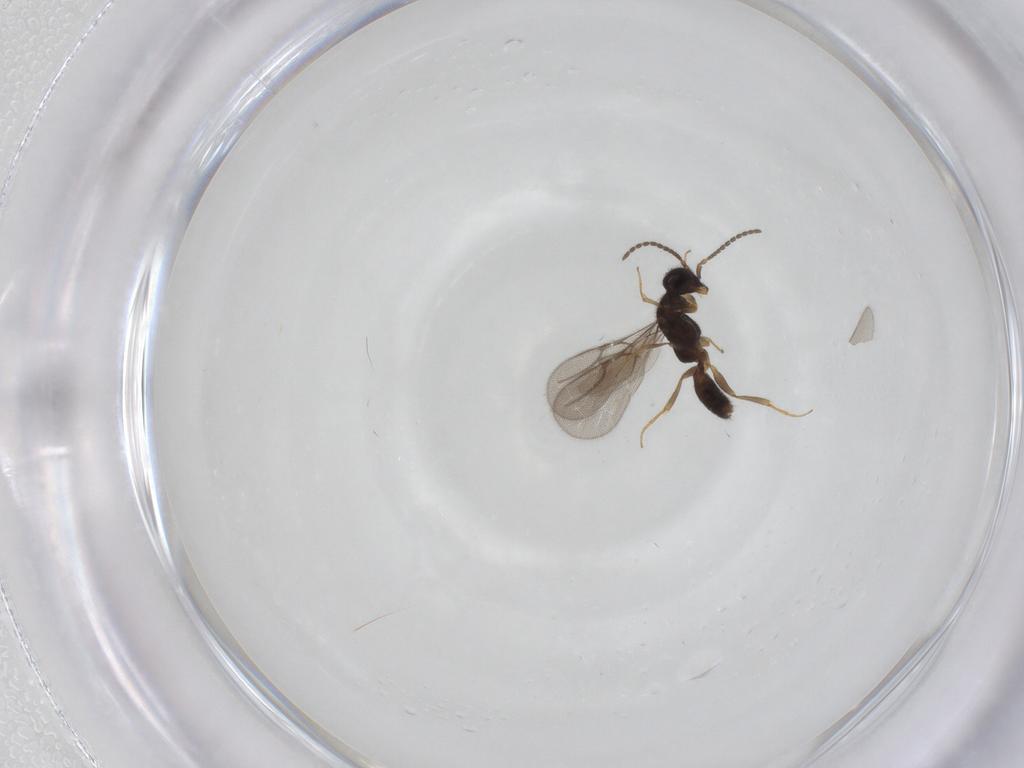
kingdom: Animalia
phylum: Arthropoda
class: Insecta
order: Hymenoptera
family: Bethylidae
